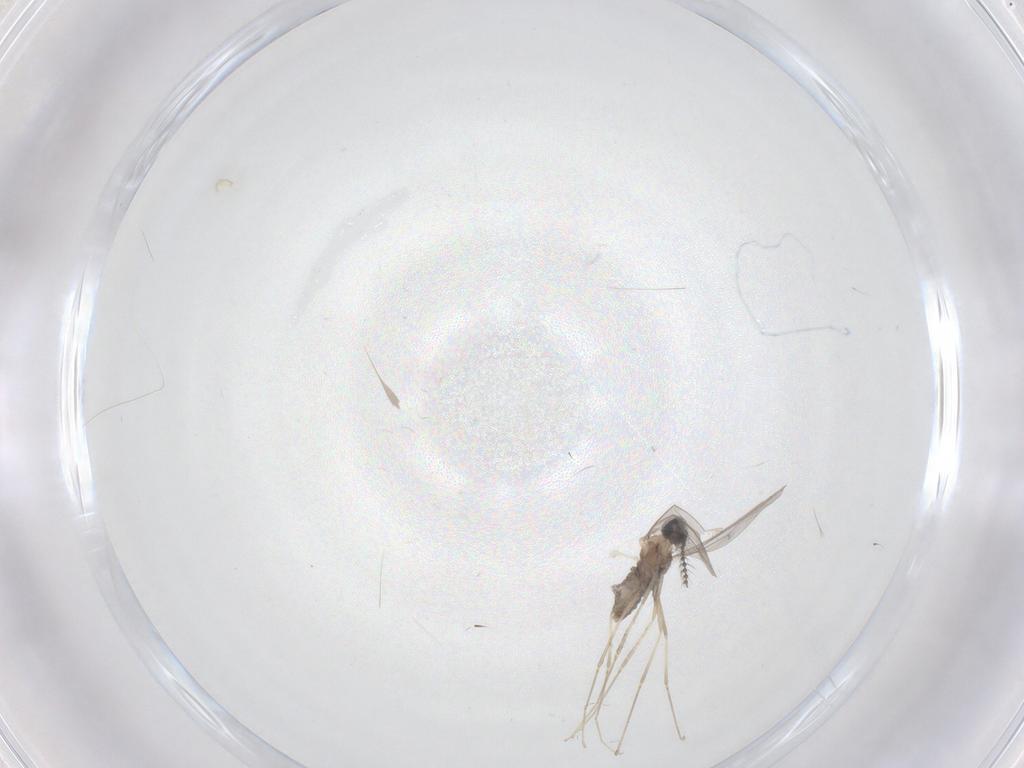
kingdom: Animalia
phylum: Arthropoda
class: Insecta
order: Diptera
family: Cecidomyiidae
